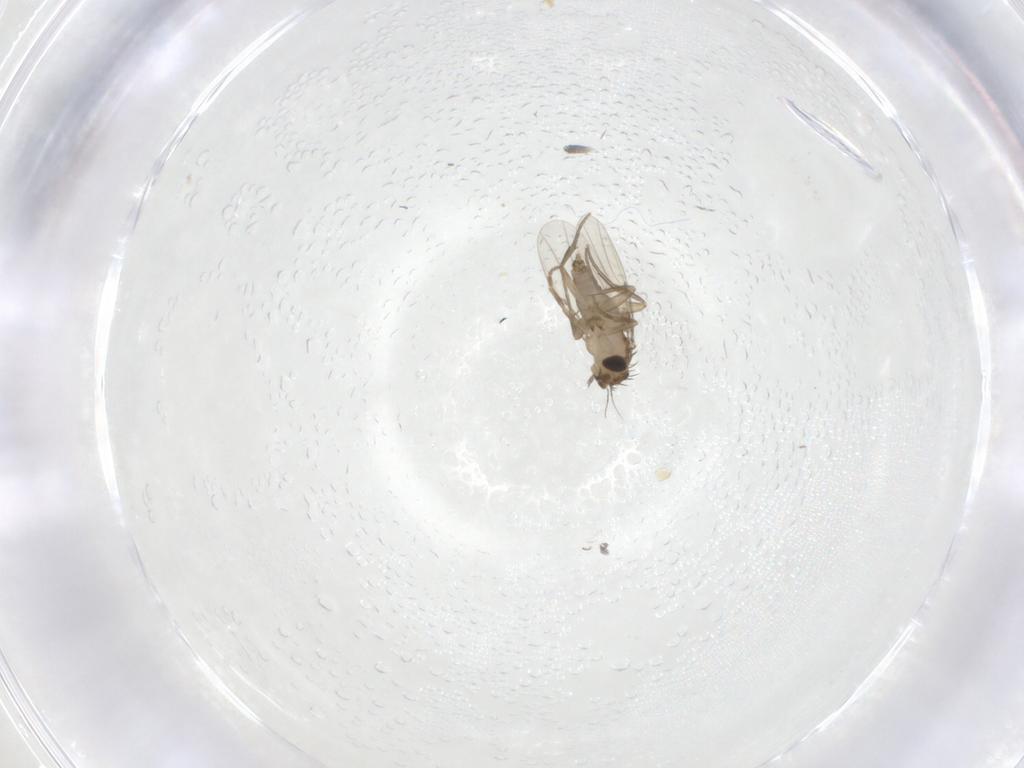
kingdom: Animalia
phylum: Arthropoda
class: Insecta
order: Diptera
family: Phoridae
